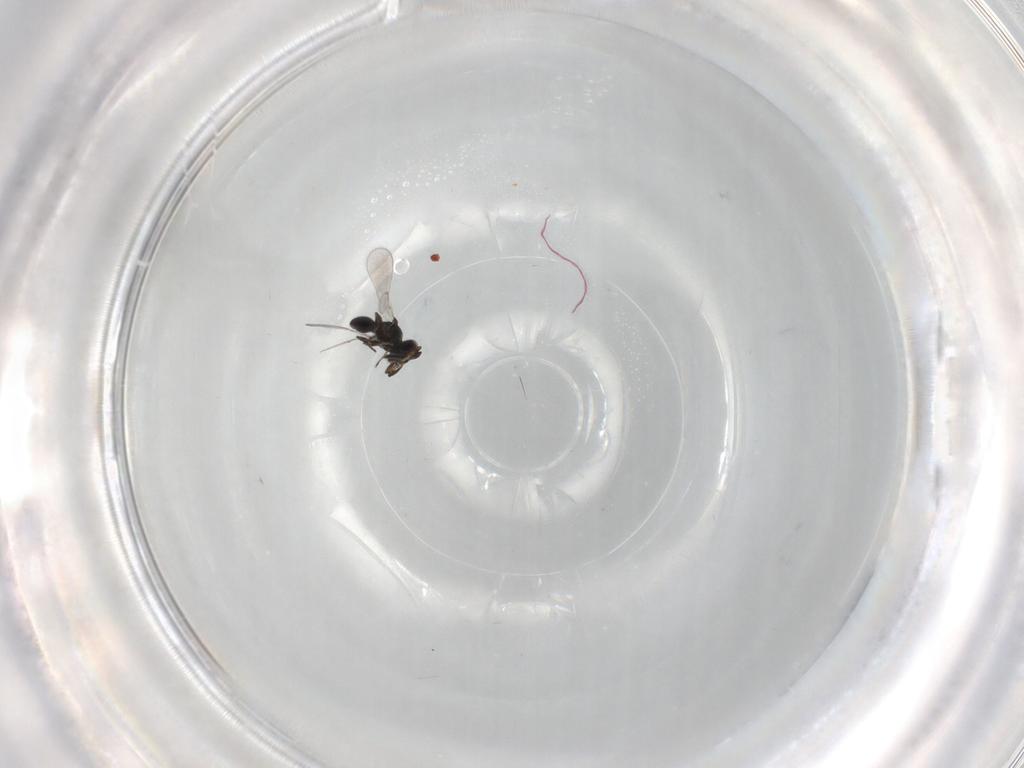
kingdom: Animalia
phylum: Arthropoda
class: Insecta
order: Hymenoptera
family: Platygastridae
